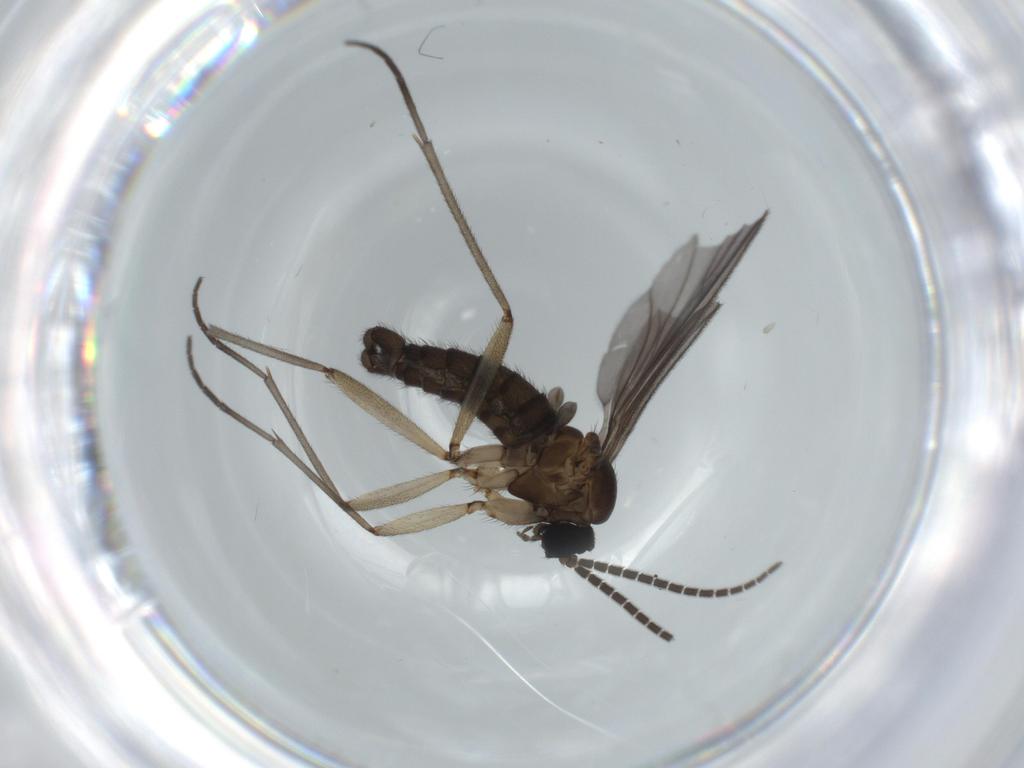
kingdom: Animalia
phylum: Arthropoda
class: Insecta
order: Diptera
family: Sciaridae
